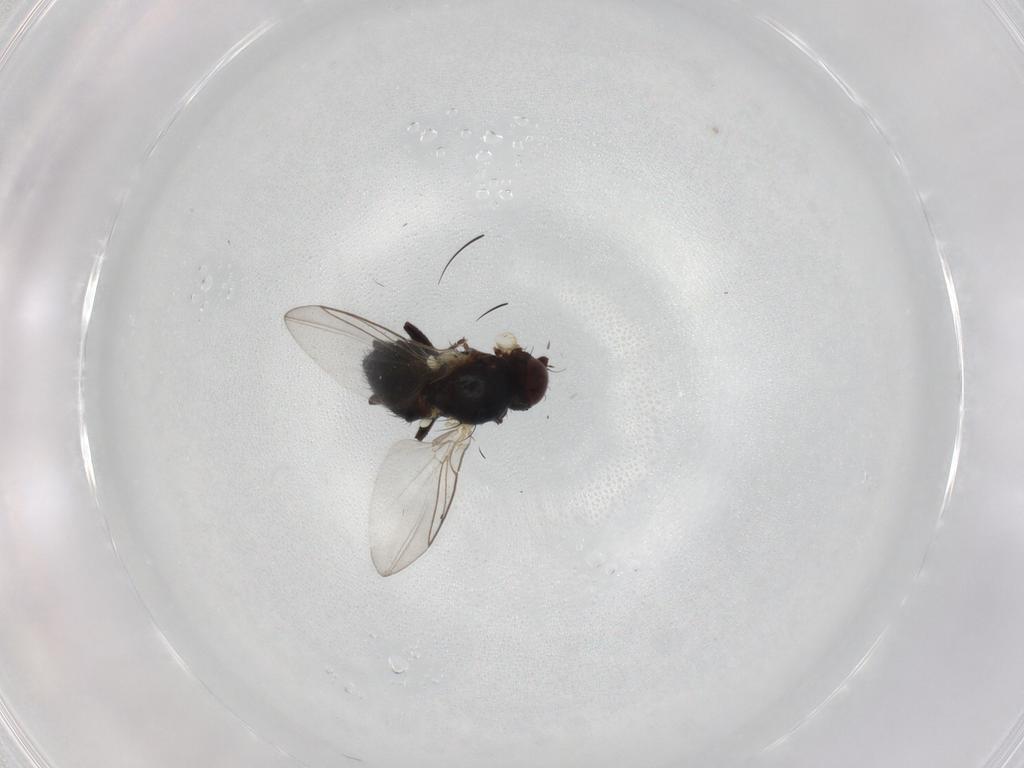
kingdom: Animalia
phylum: Arthropoda
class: Insecta
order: Diptera
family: Agromyzidae
